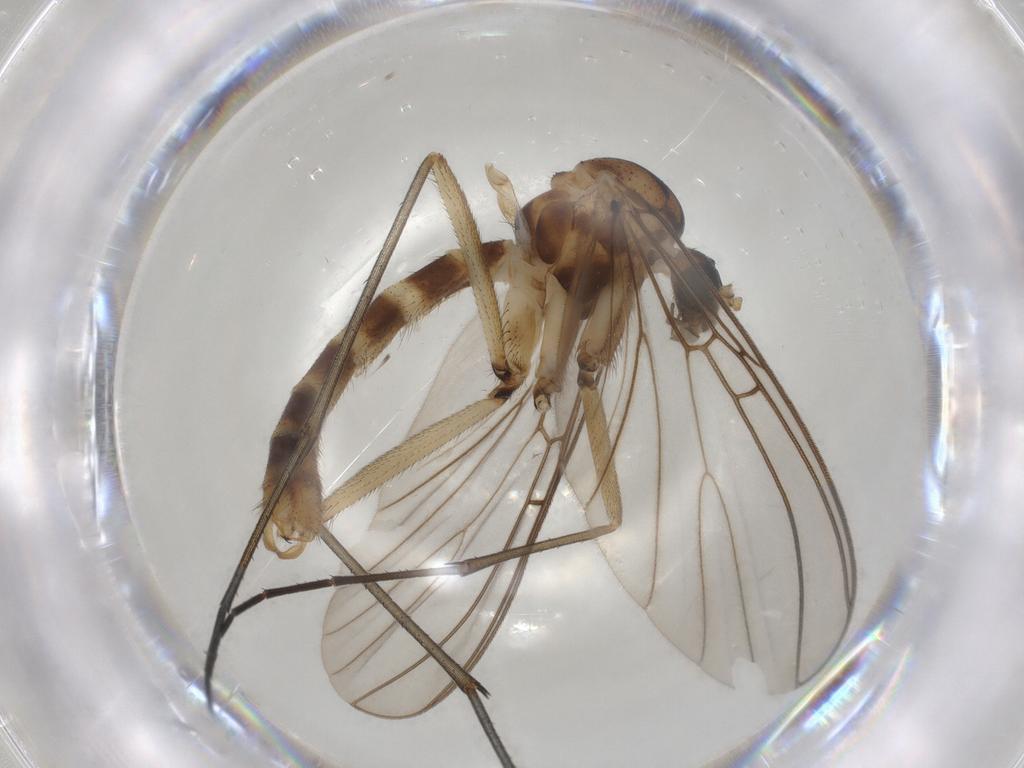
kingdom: Animalia
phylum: Arthropoda
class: Insecta
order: Diptera
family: Mycetophilidae
